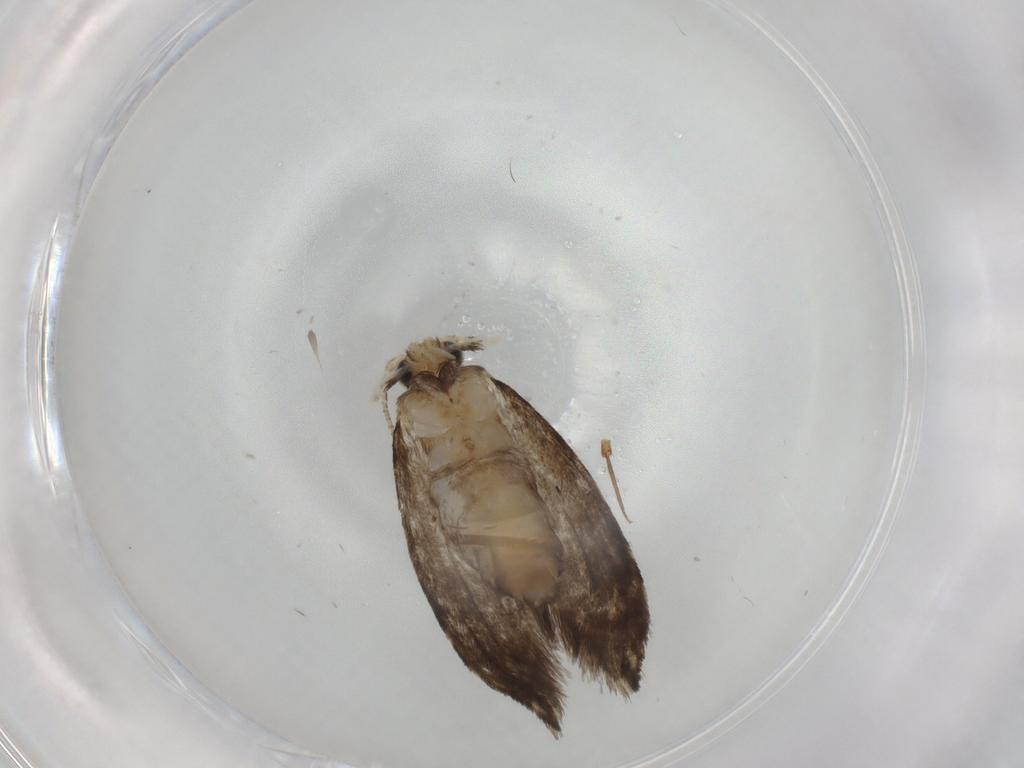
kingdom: Animalia
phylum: Arthropoda
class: Insecta
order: Lepidoptera
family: Tineidae
